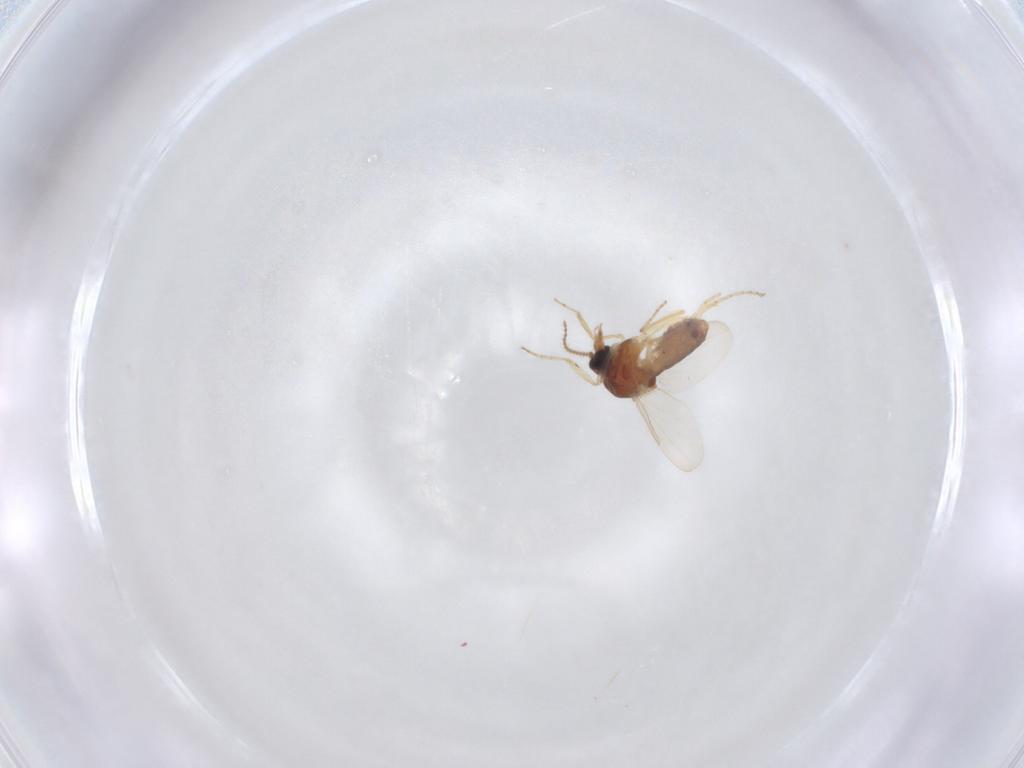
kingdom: Animalia
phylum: Arthropoda
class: Insecta
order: Diptera
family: Ceratopogonidae
